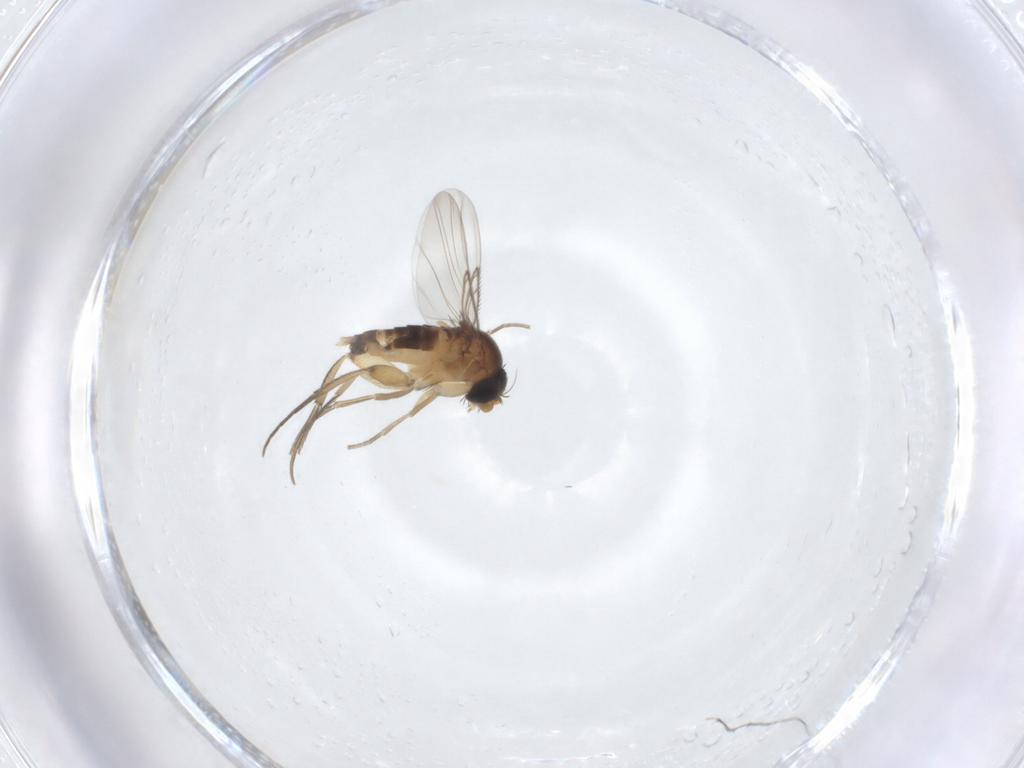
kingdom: Animalia
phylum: Arthropoda
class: Insecta
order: Diptera
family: Phoridae
